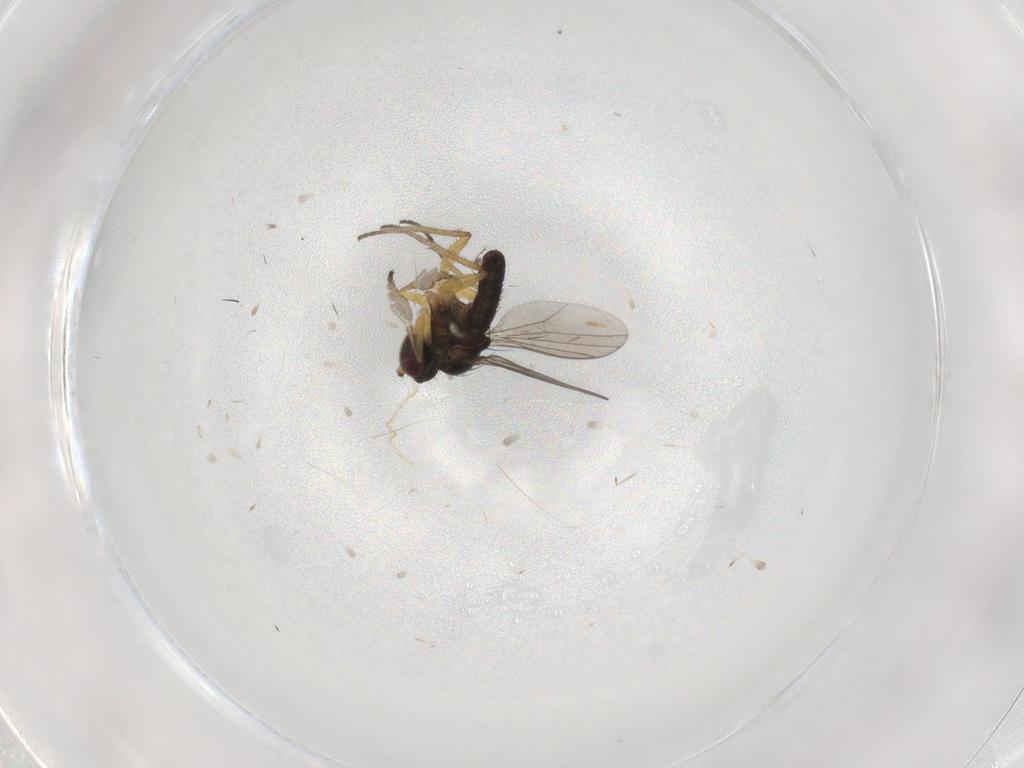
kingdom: Animalia
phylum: Arthropoda
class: Insecta
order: Diptera
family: Dolichopodidae
